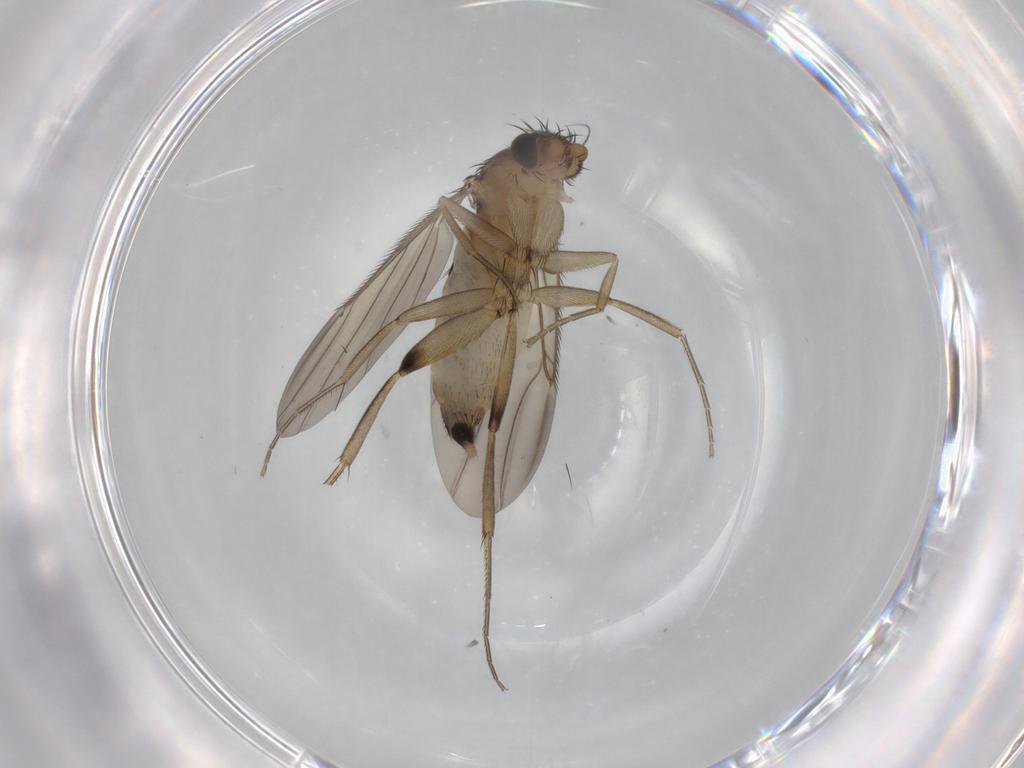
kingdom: Animalia
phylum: Arthropoda
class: Insecta
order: Diptera
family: Phoridae
